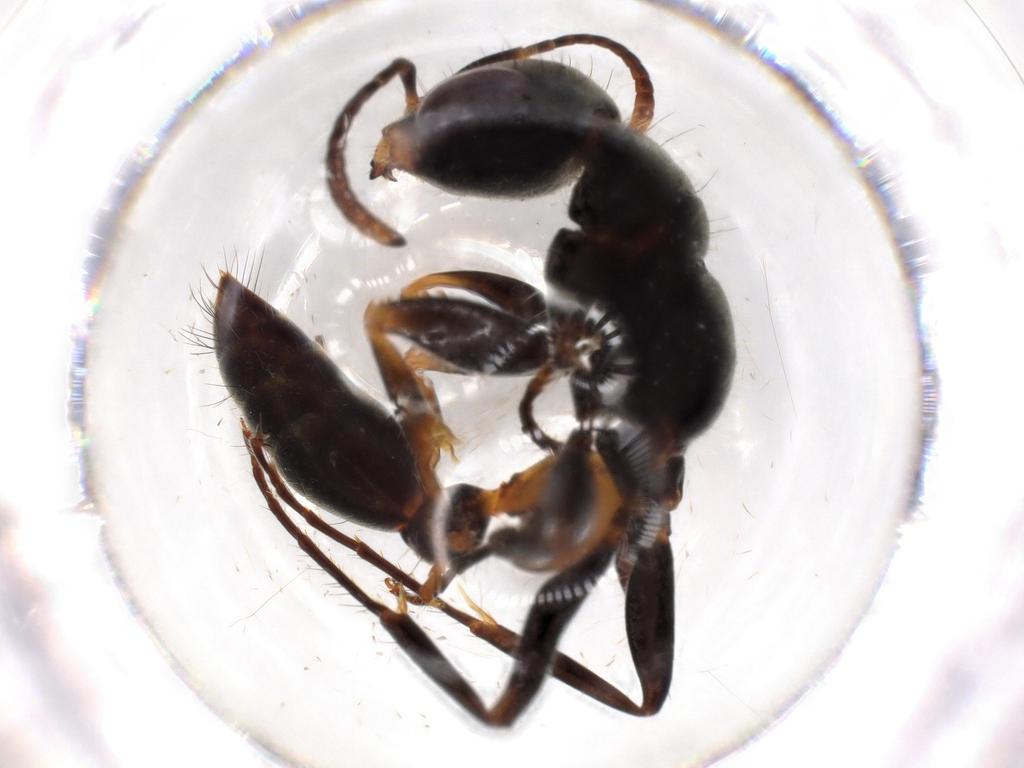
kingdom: Animalia
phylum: Arthropoda
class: Insecta
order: Hymenoptera
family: Formicidae
